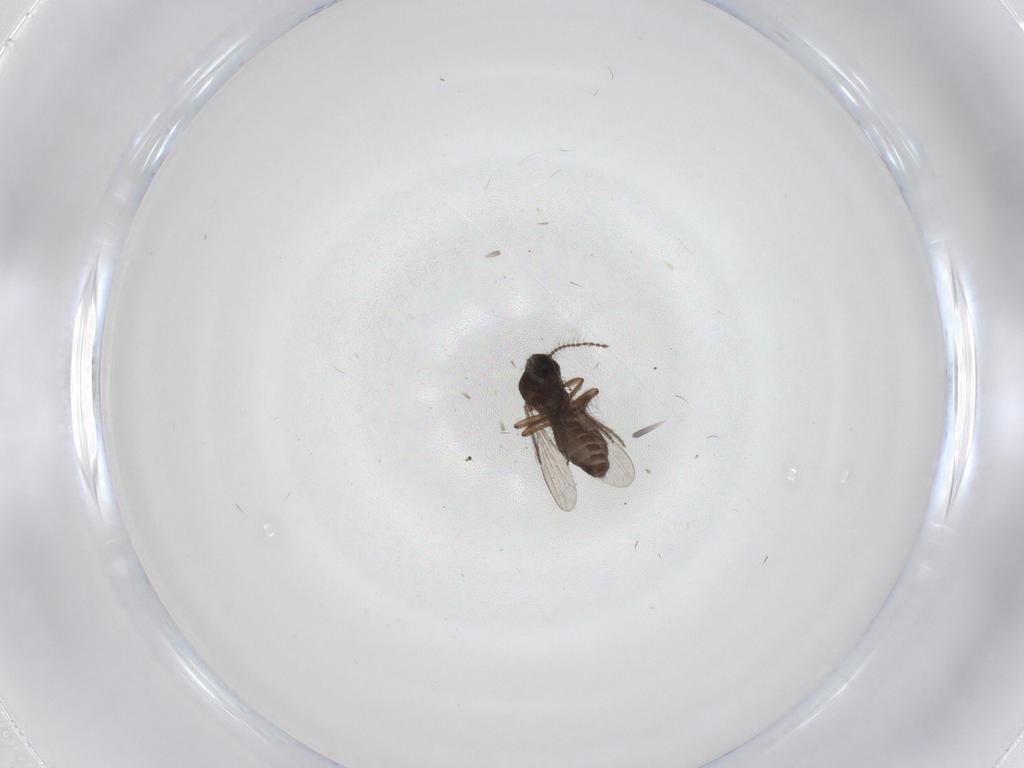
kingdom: Animalia
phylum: Arthropoda
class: Insecta
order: Diptera
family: Ceratopogonidae
